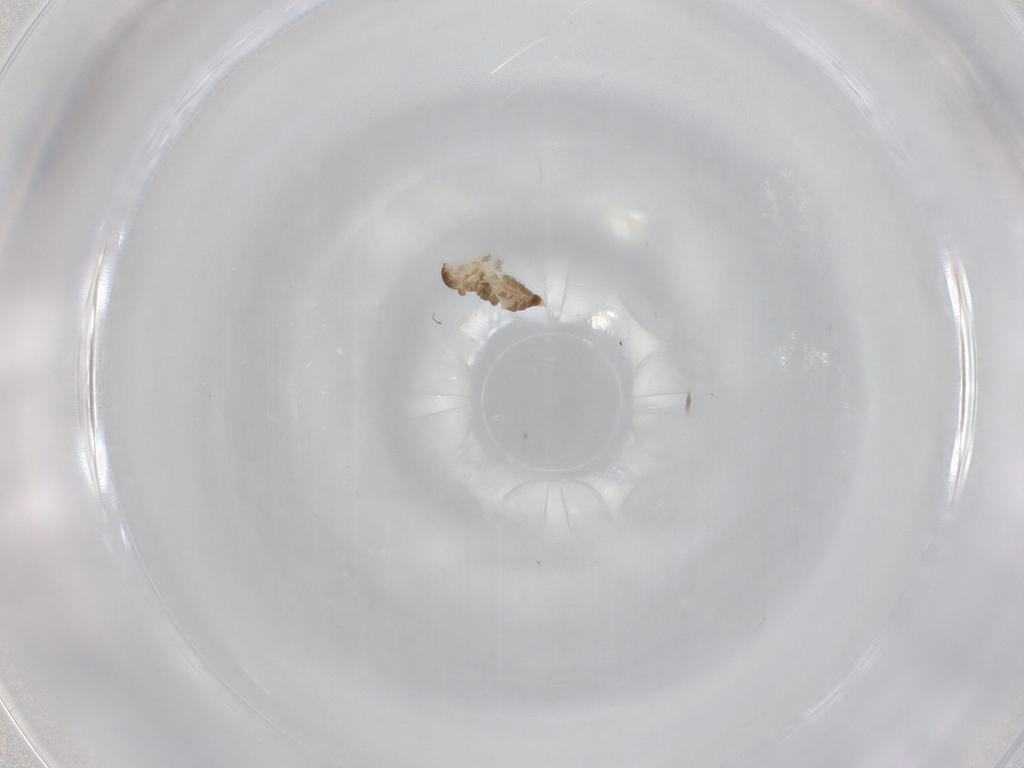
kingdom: Animalia
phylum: Arthropoda
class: Insecta
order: Diptera
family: Cecidomyiidae
